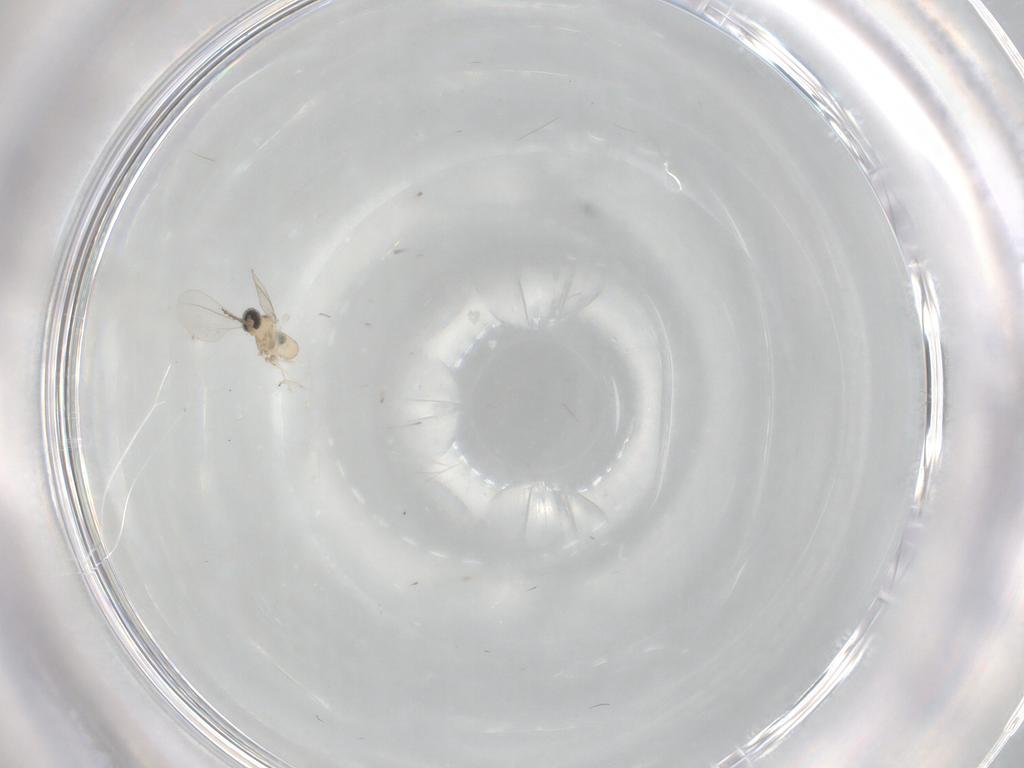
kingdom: Animalia
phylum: Arthropoda
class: Insecta
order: Diptera
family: Cecidomyiidae
